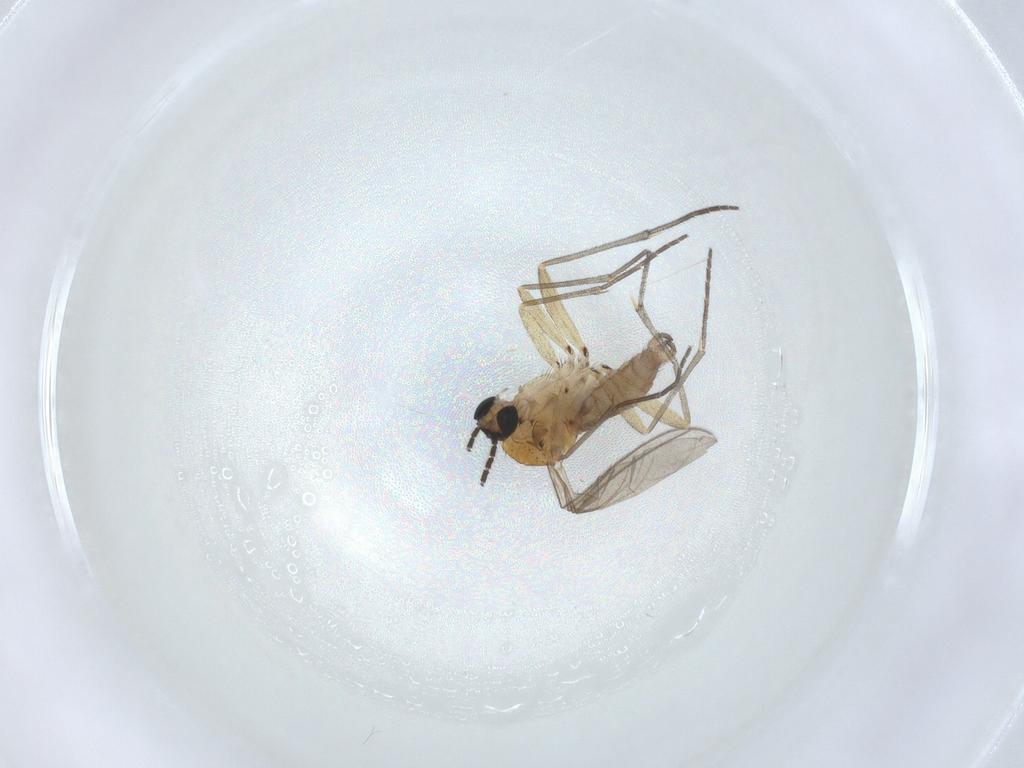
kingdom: Animalia
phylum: Arthropoda
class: Insecta
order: Diptera
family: Sciaridae
